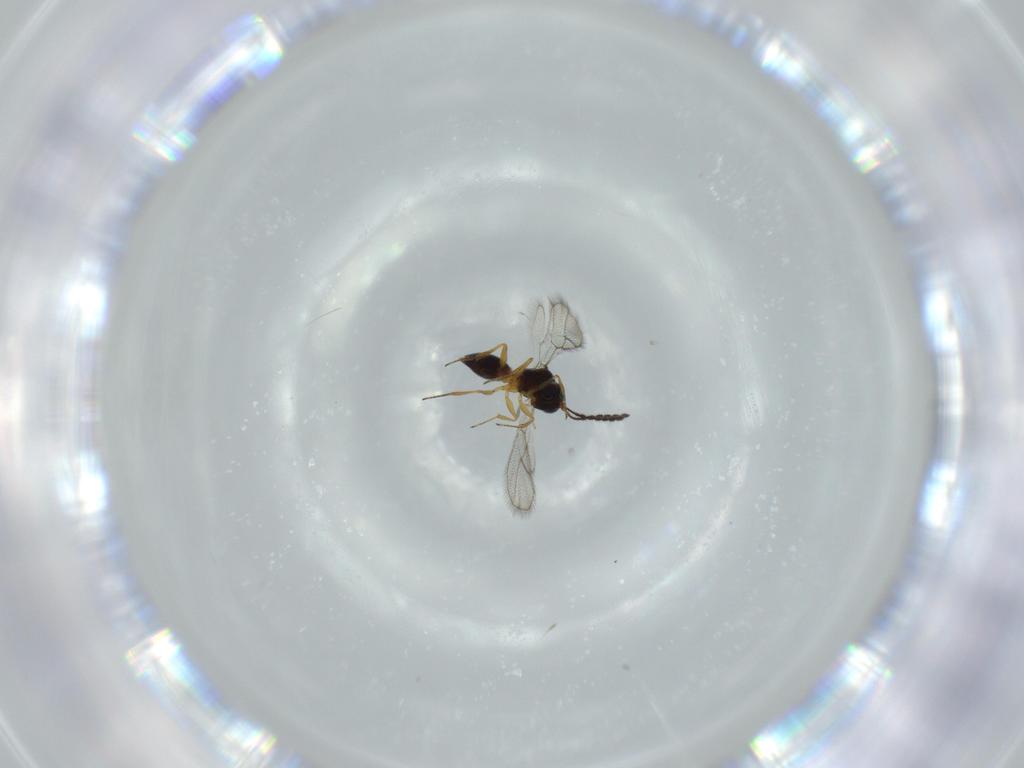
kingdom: Animalia
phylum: Arthropoda
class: Insecta
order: Hymenoptera
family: Figitidae
